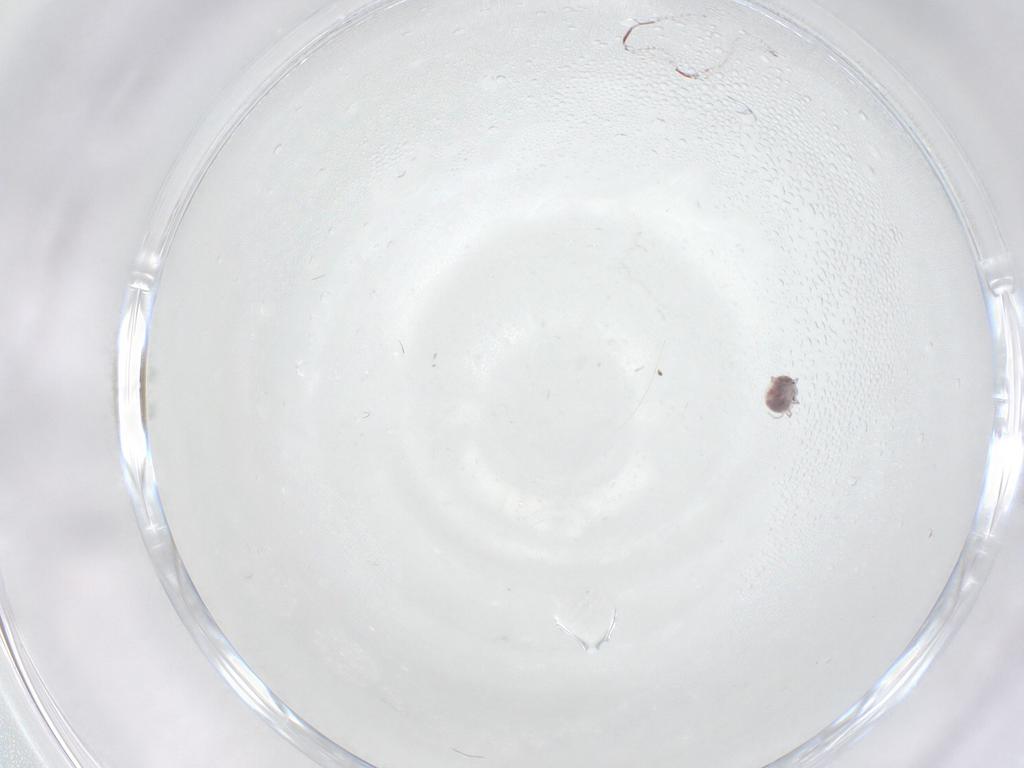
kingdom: Animalia
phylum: Arthropoda
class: Arachnida
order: Trombidiformes
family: Pionidae
